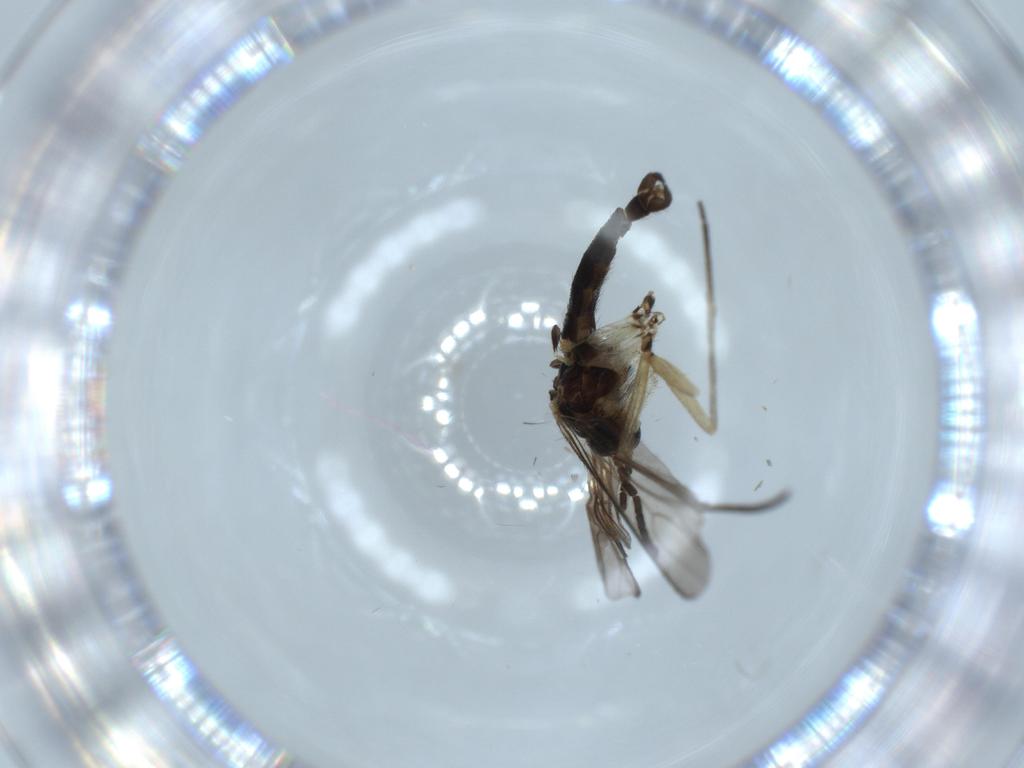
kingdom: Animalia
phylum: Arthropoda
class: Insecta
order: Diptera
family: Sciaridae
